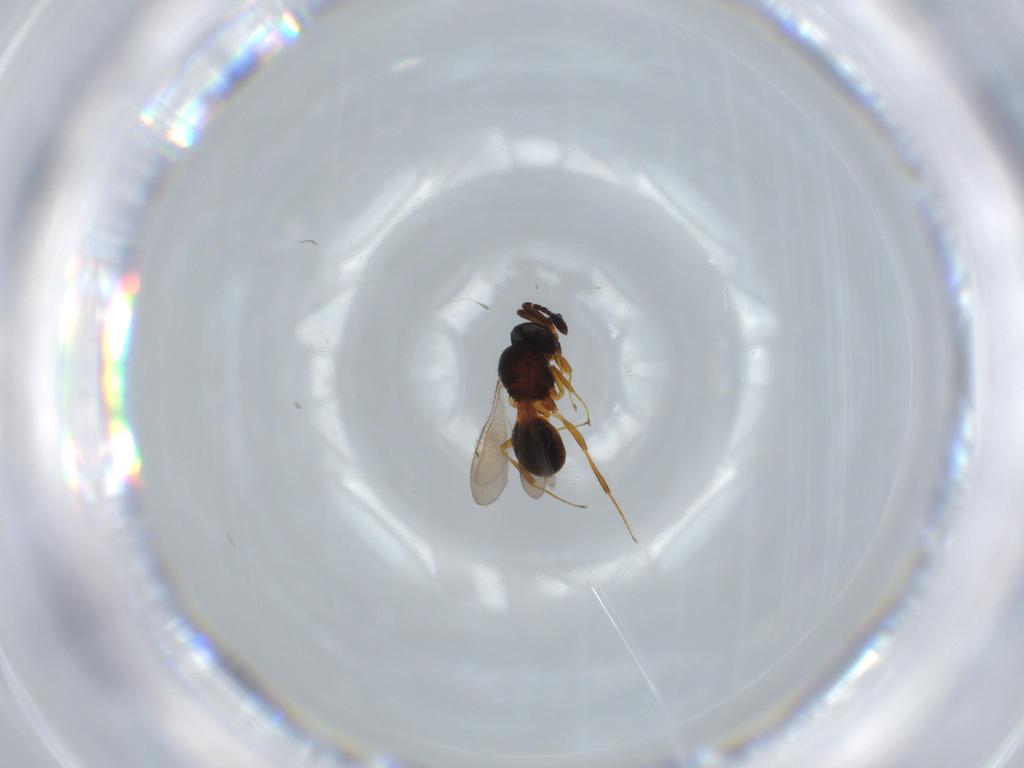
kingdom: Animalia
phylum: Arthropoda
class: Insecta
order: Hymenoptera
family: Scelionidae
